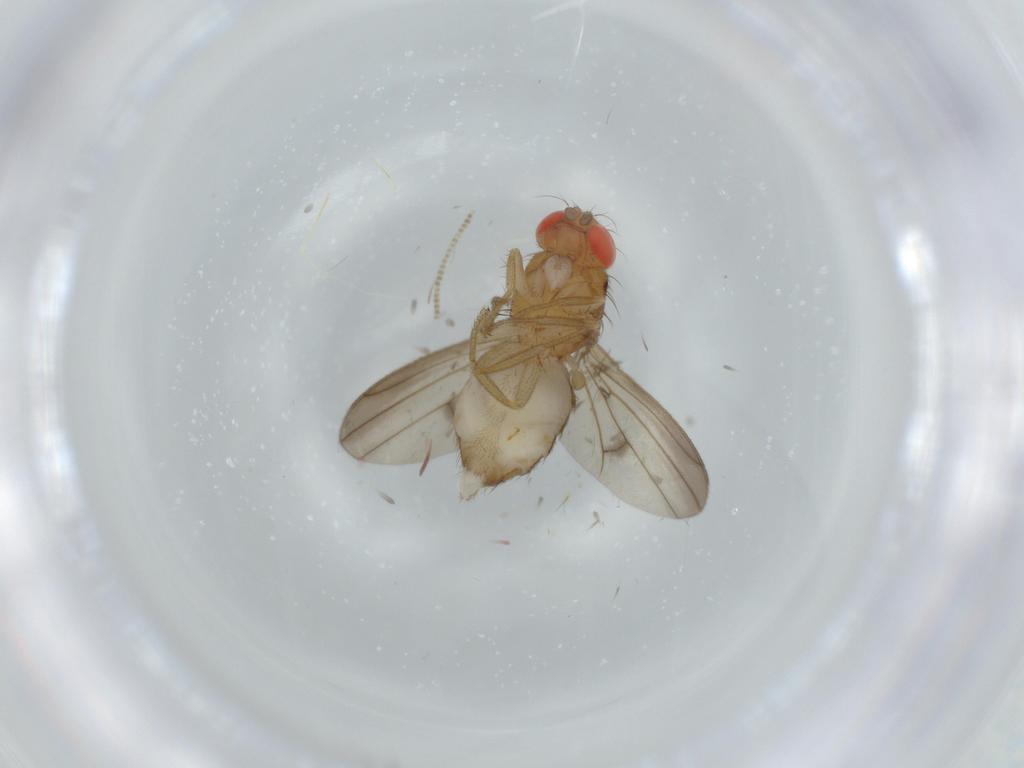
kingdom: Animalia
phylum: Arthropoda
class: Insecta
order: Diptera
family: Drosophilidae
